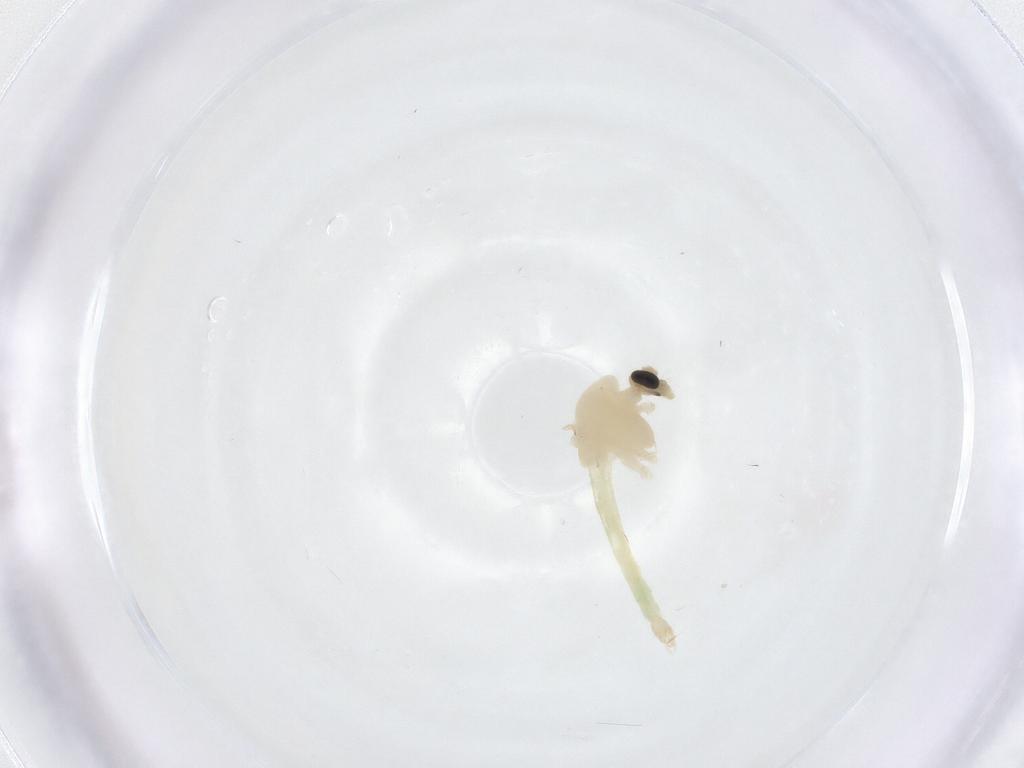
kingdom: Animalia
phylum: Arthropoda
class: Insecta
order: Diptera
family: Chironomidae
